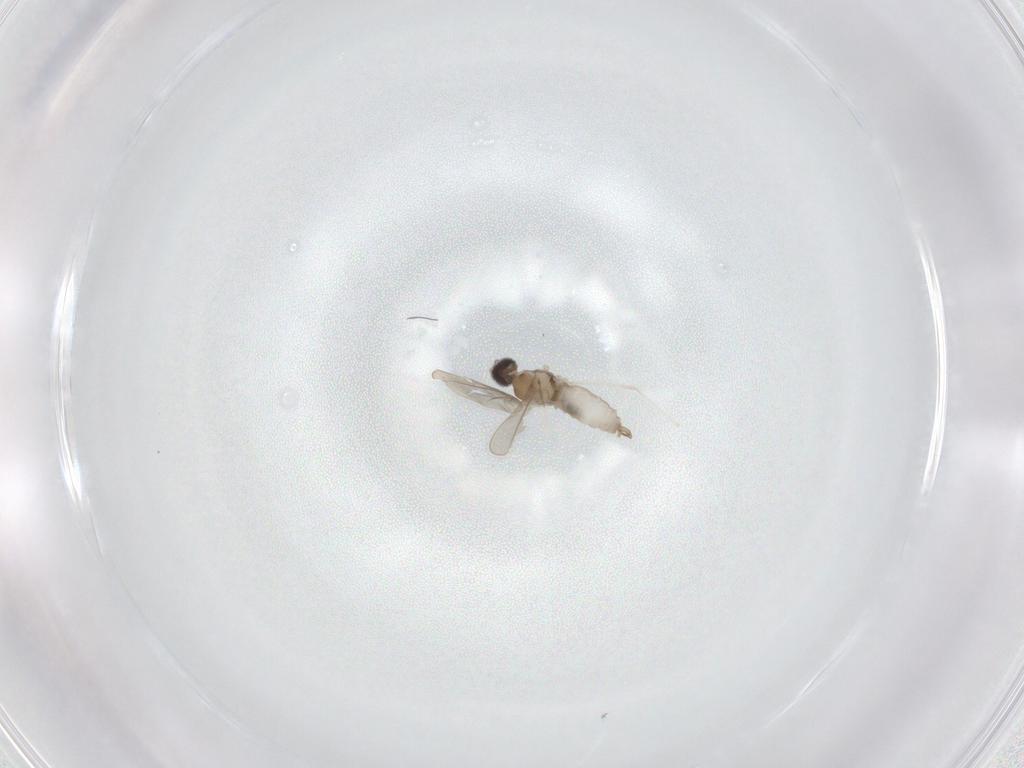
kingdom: Animalia
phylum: Arthropoda
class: Insecta
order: Diptera
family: Cecidomyiidae
